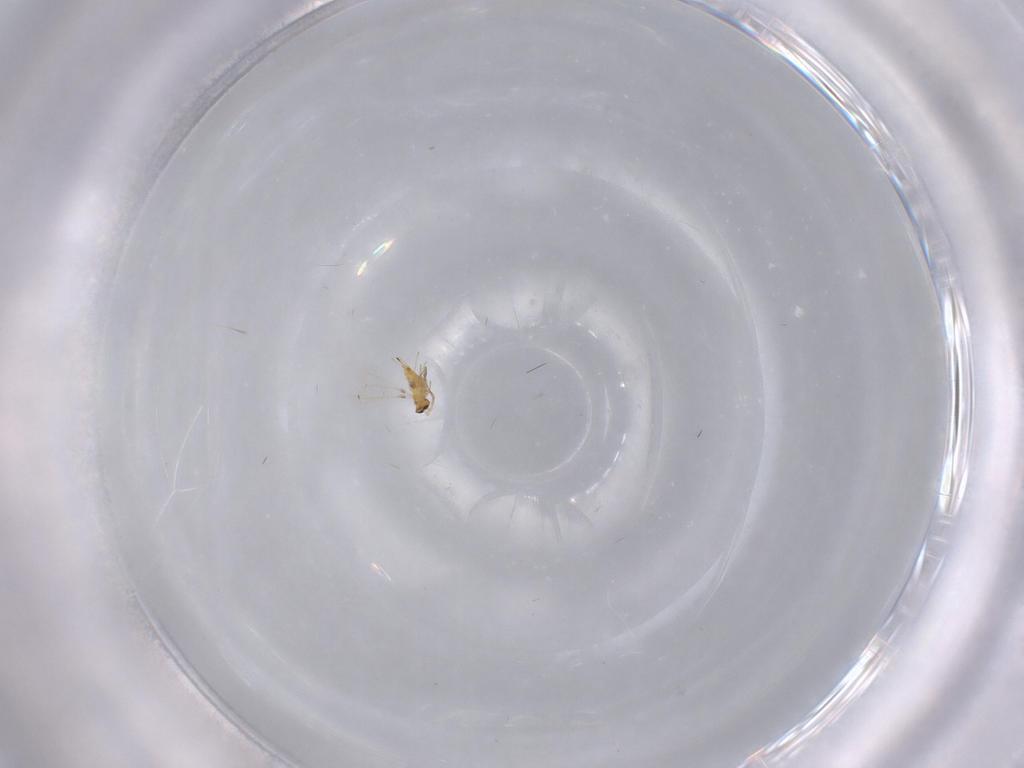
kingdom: Animalia
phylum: Arthropoda
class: Insecta
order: Hymenoptera
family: Mymaridae
